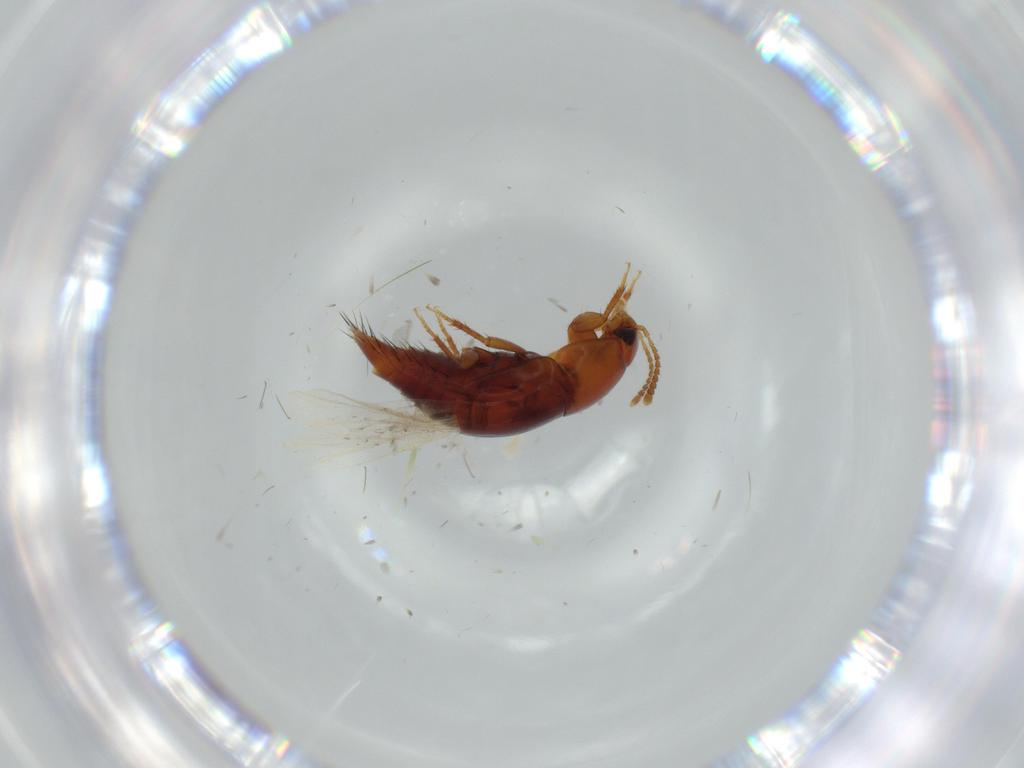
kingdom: Animalia
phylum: Arthropoda
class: Insecta
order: Coleoptera
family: Staphylinidae
